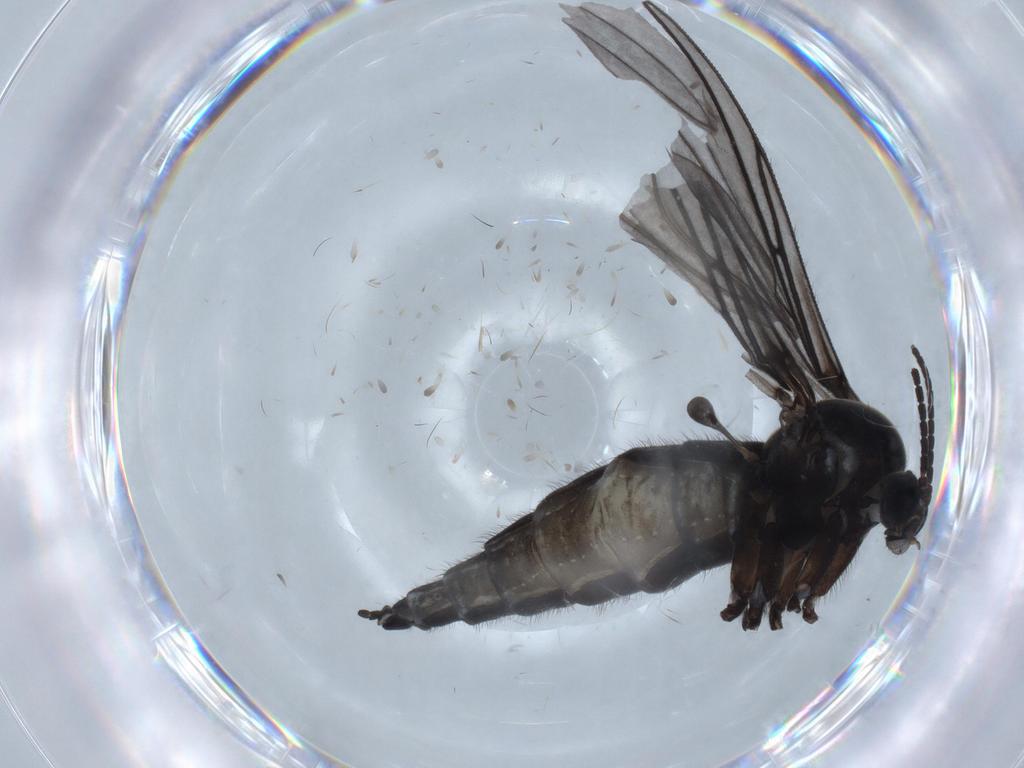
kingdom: Animalia
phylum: Arthropoda
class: Insecta
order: Diptera
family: Sciaridae
